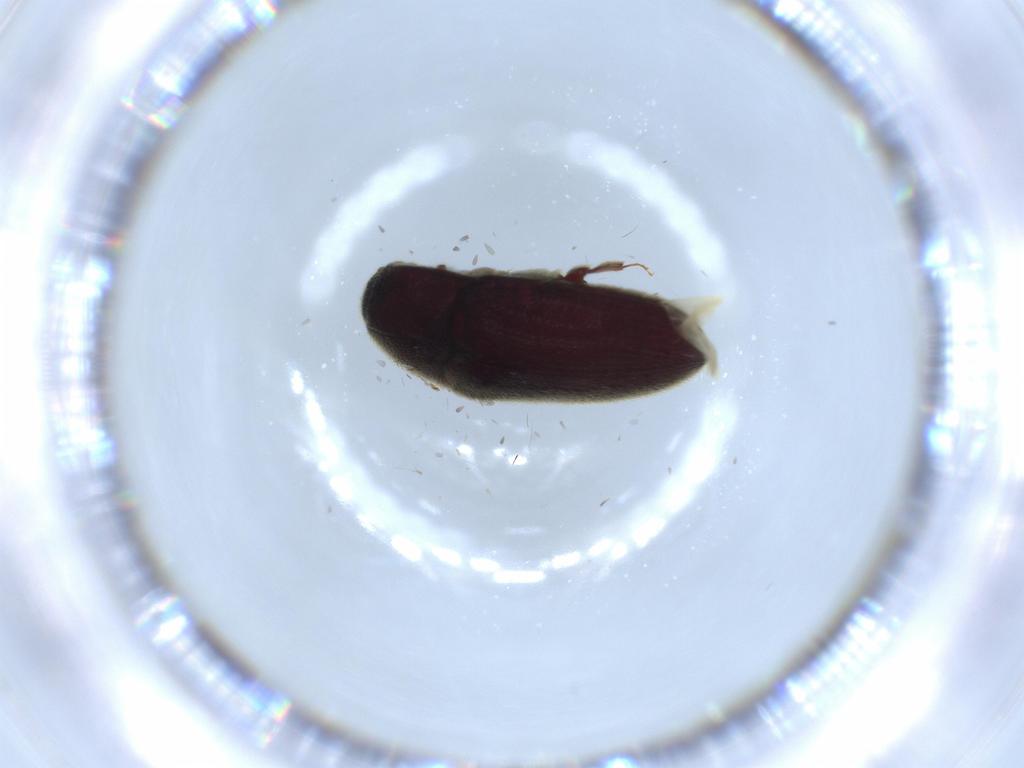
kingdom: Animalia
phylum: Arthropoda
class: Insecta
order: Coleoptera
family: Throscidae
